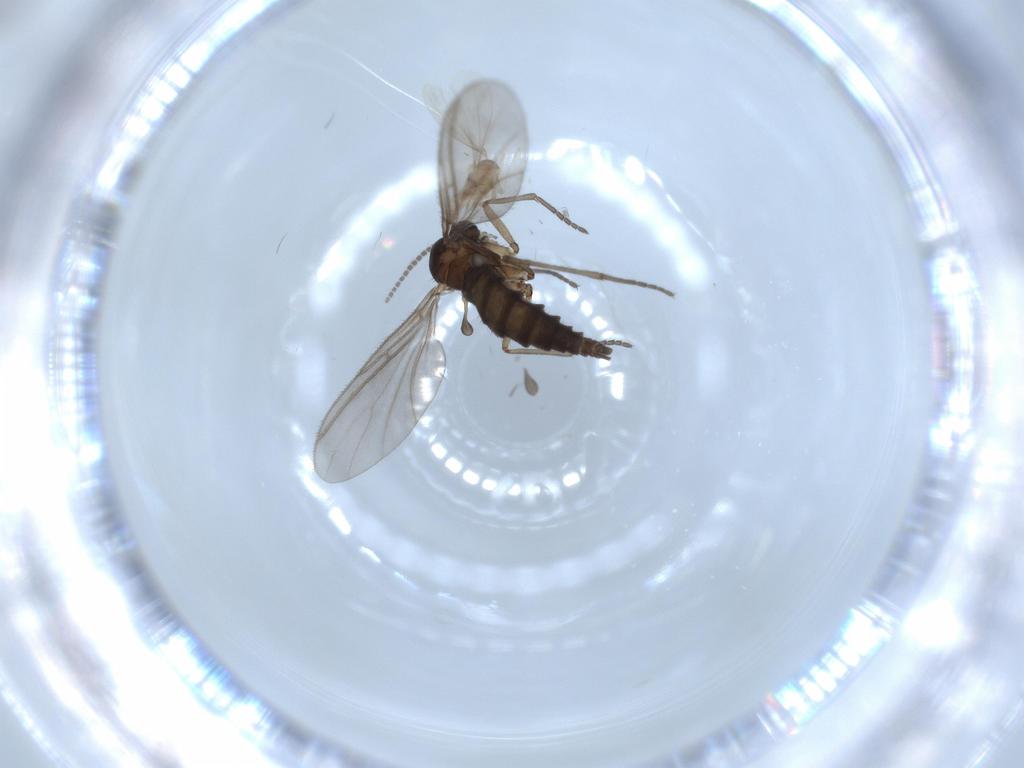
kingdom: Animalia
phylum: Arthropoda
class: Insecta
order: Diptera
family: Cecidomyiidae
